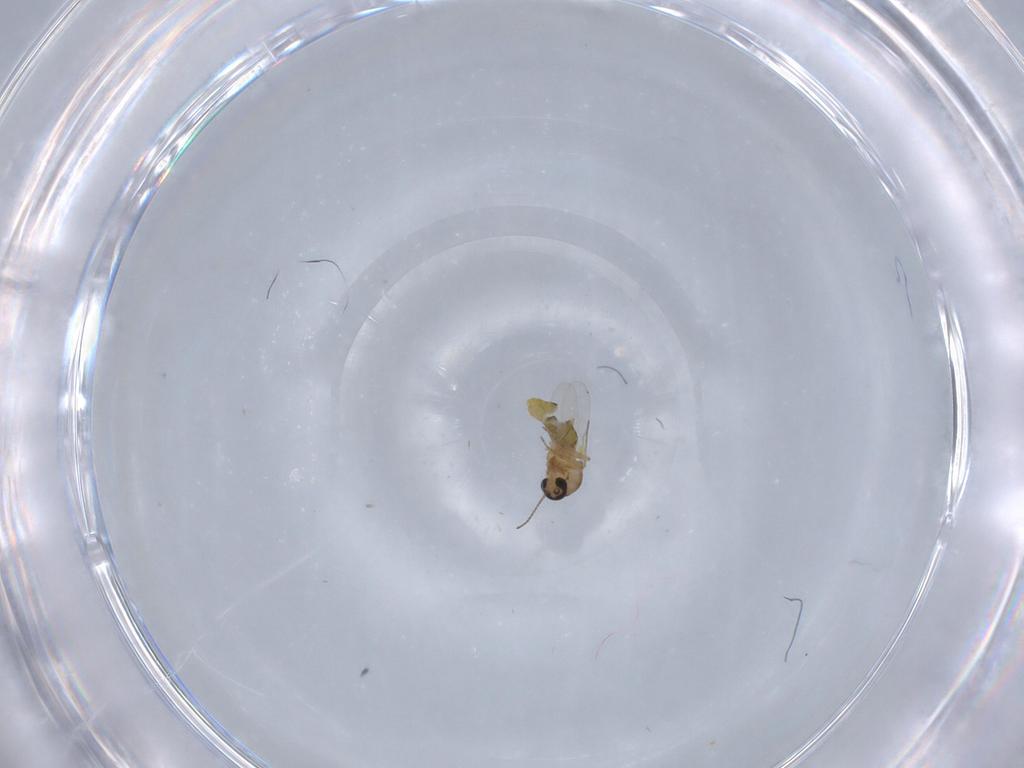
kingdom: Animalia
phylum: Arthropoda
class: Insecta
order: Diptera
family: Ceratopogonidae
